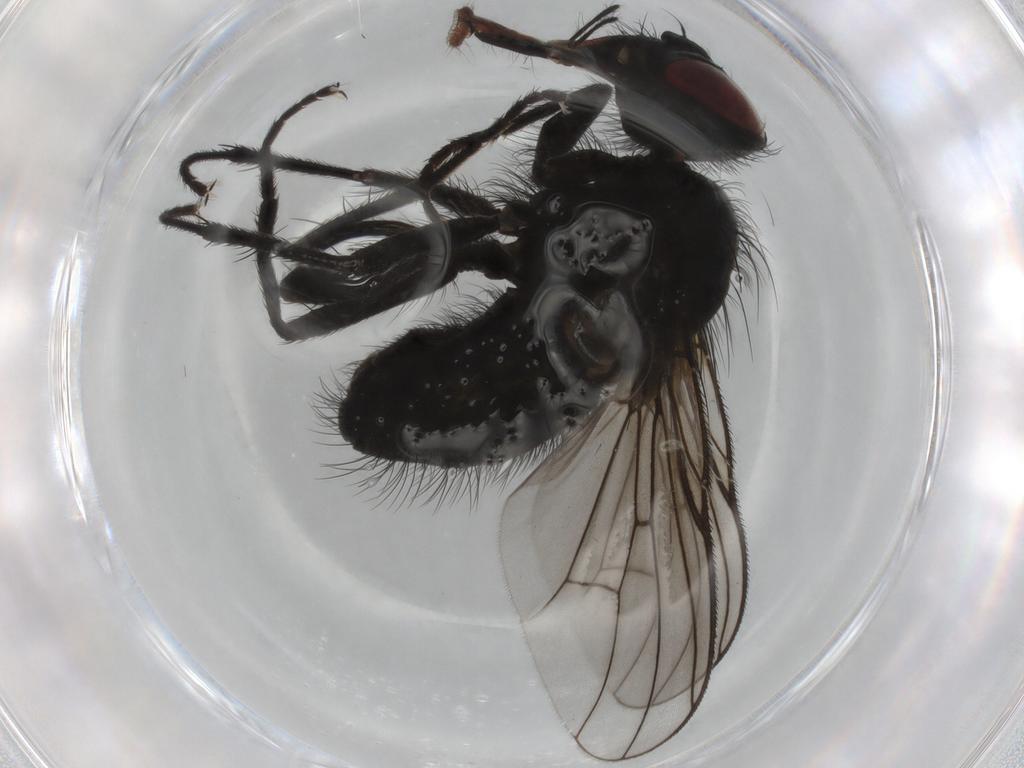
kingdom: Animalia
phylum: Arthropoda
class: Insecta
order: Diptera
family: Muscidae
